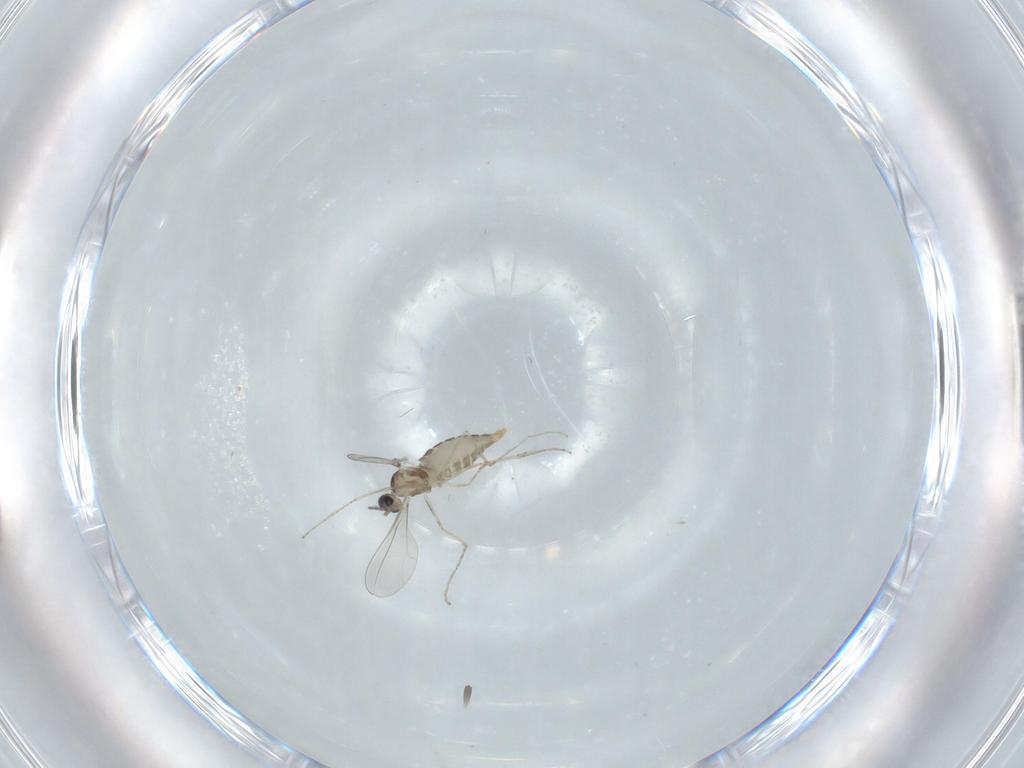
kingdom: Animalia
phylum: Arthropoda
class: Insecta
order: Diptera
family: Cecidomyiidae
